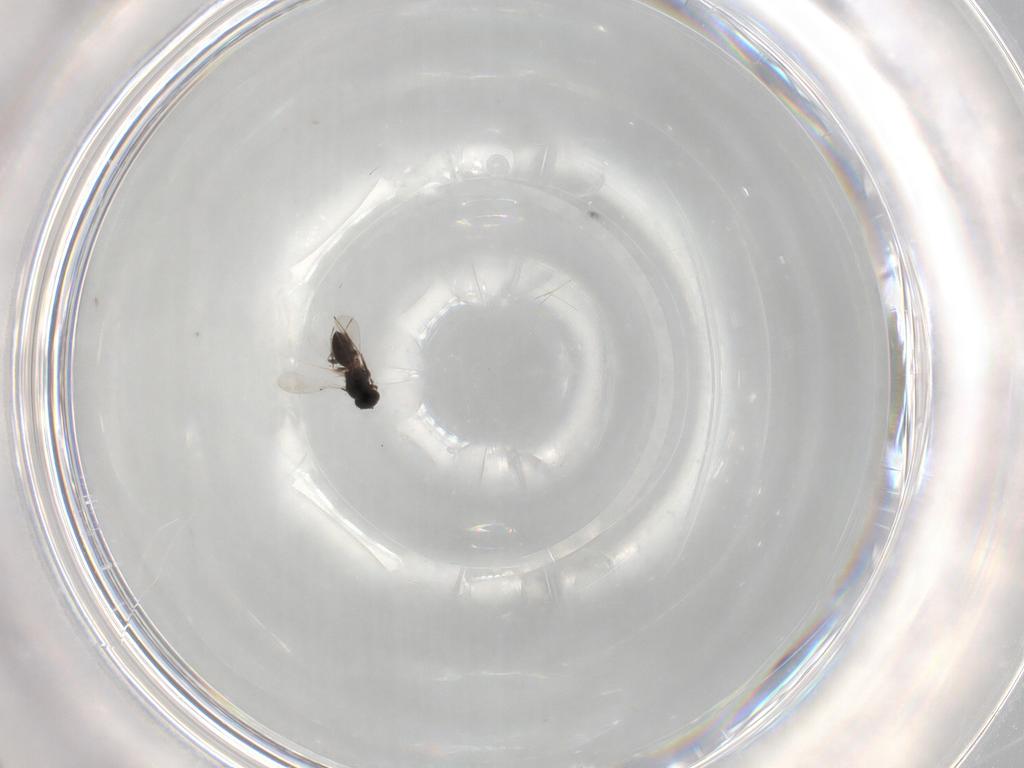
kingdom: Animalia
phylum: Arthropoda
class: Insecta
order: Hymenoptera
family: Platygastridae
